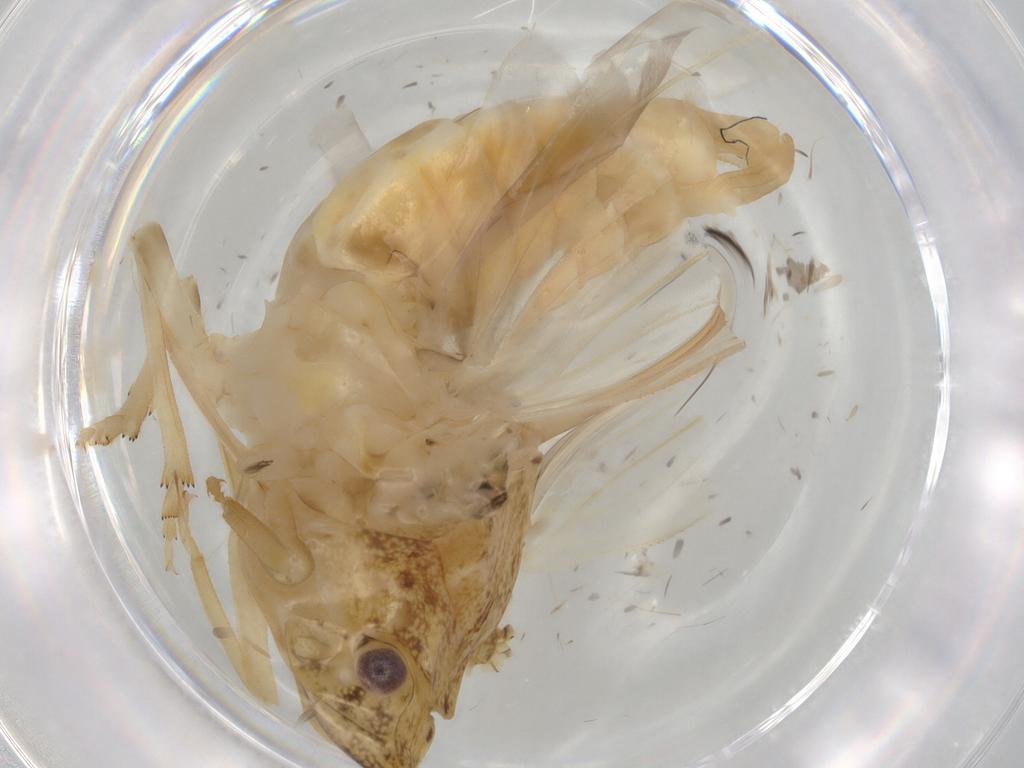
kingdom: Animalia
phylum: Arthropoda
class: Insecta
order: Hemiptera
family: Flatidae
